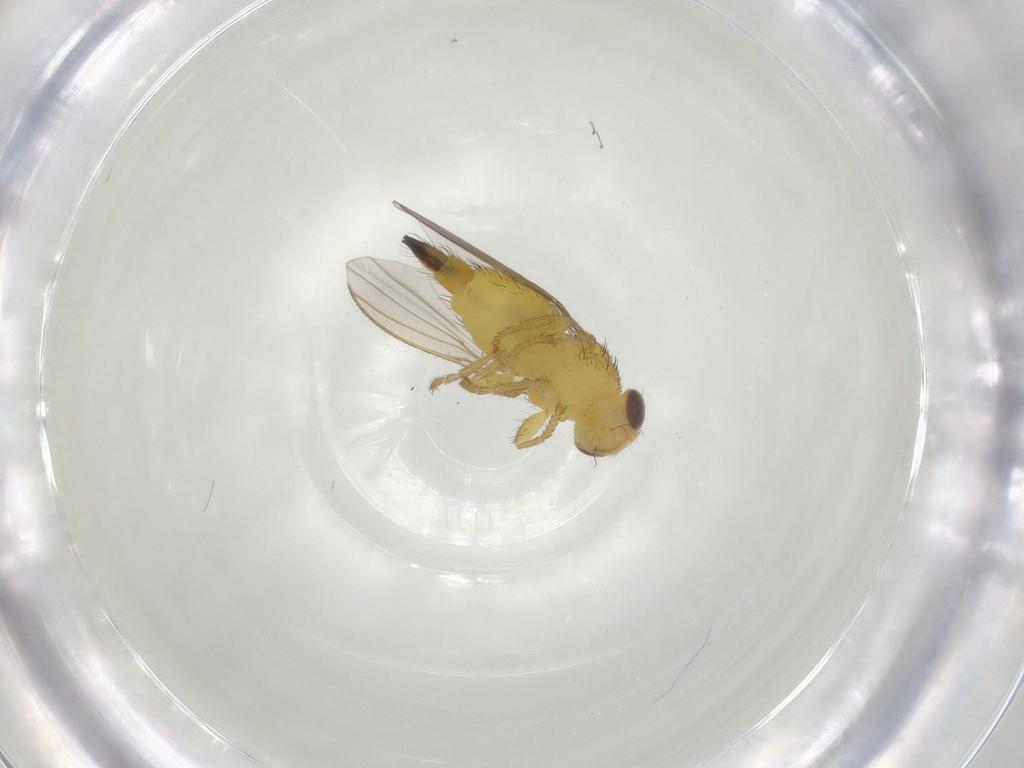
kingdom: Animalia
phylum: Arthropoda
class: Insecta
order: Diptera
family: Fergusoninidae
